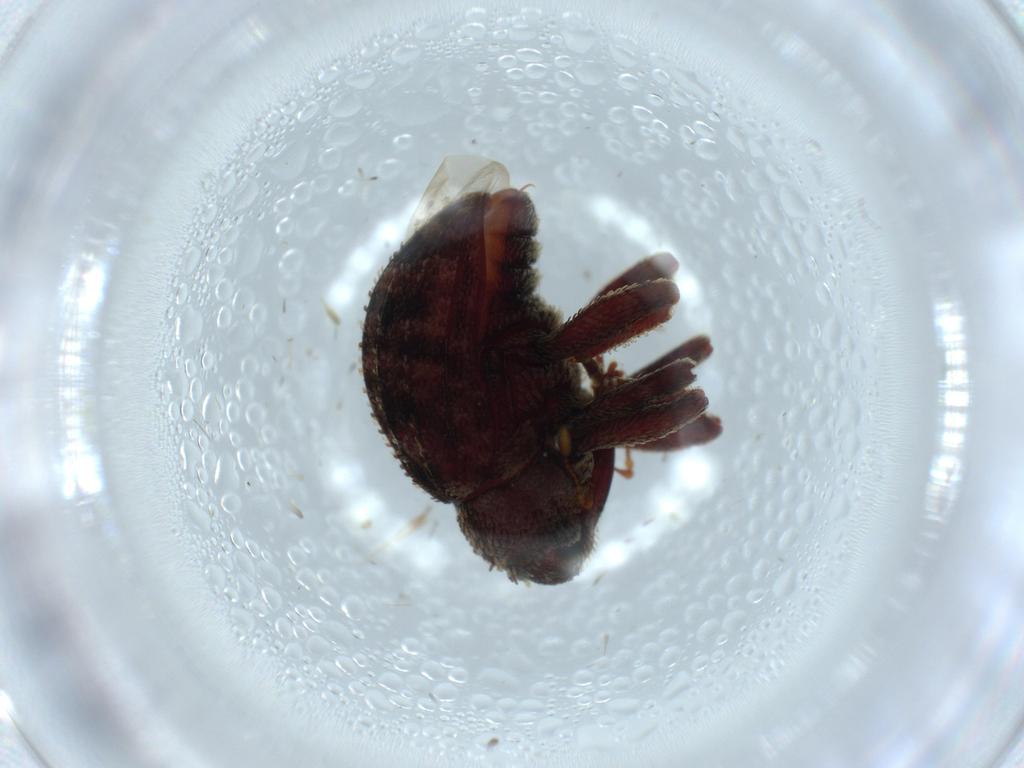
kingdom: Animalia
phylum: Arthropoda
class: Insecta
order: Coleoptera
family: Curculionidae
